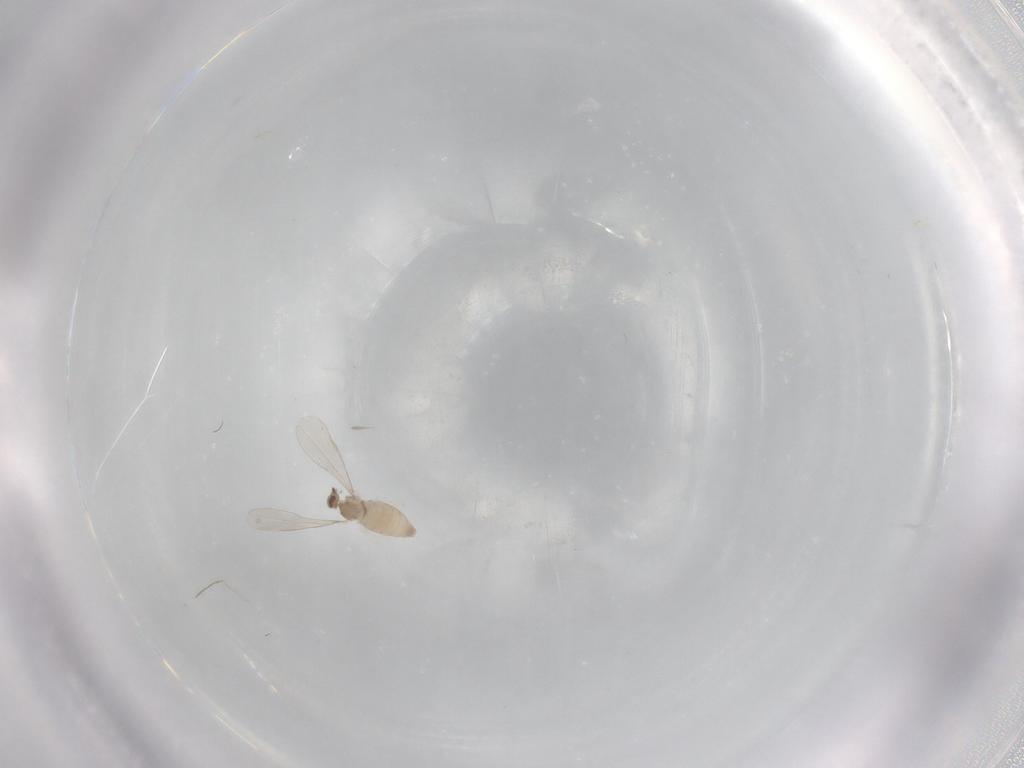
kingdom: Animalia
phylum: Arthropoda
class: Insecta
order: Diptera
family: Cecidomyiidae
